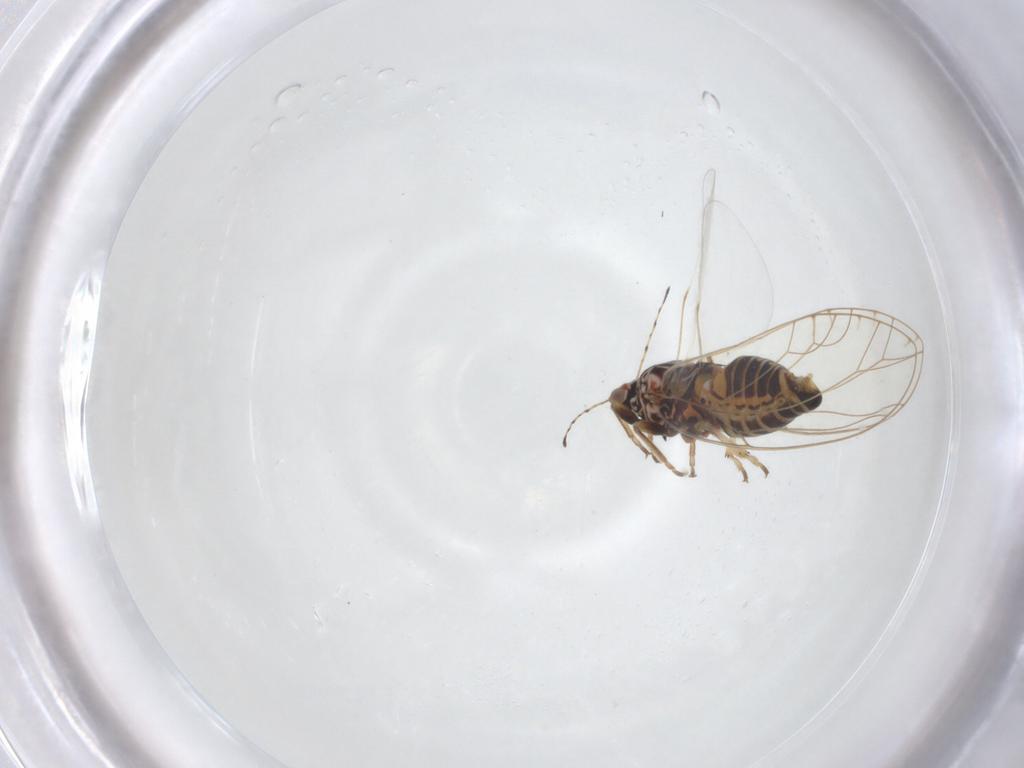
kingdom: Animalia
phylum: Arthropoda
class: Insecta
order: Hemiptera
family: Triozidae
